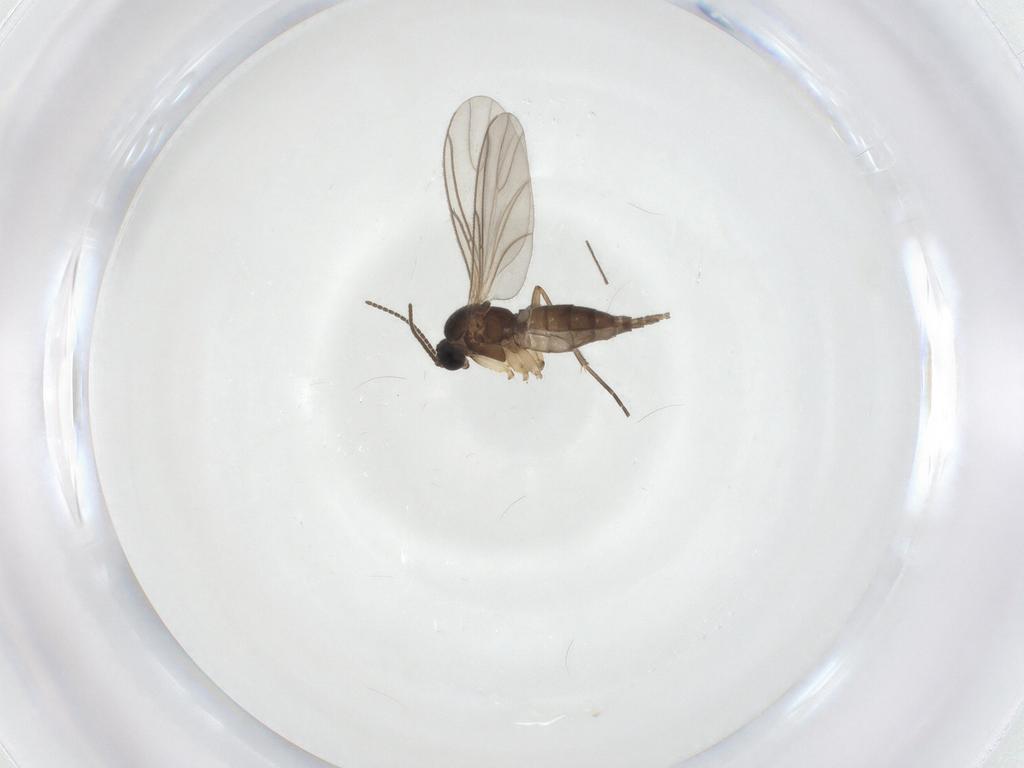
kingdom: Animalia
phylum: Arthropoda
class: Insecta
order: Diptera
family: Sciaridae
